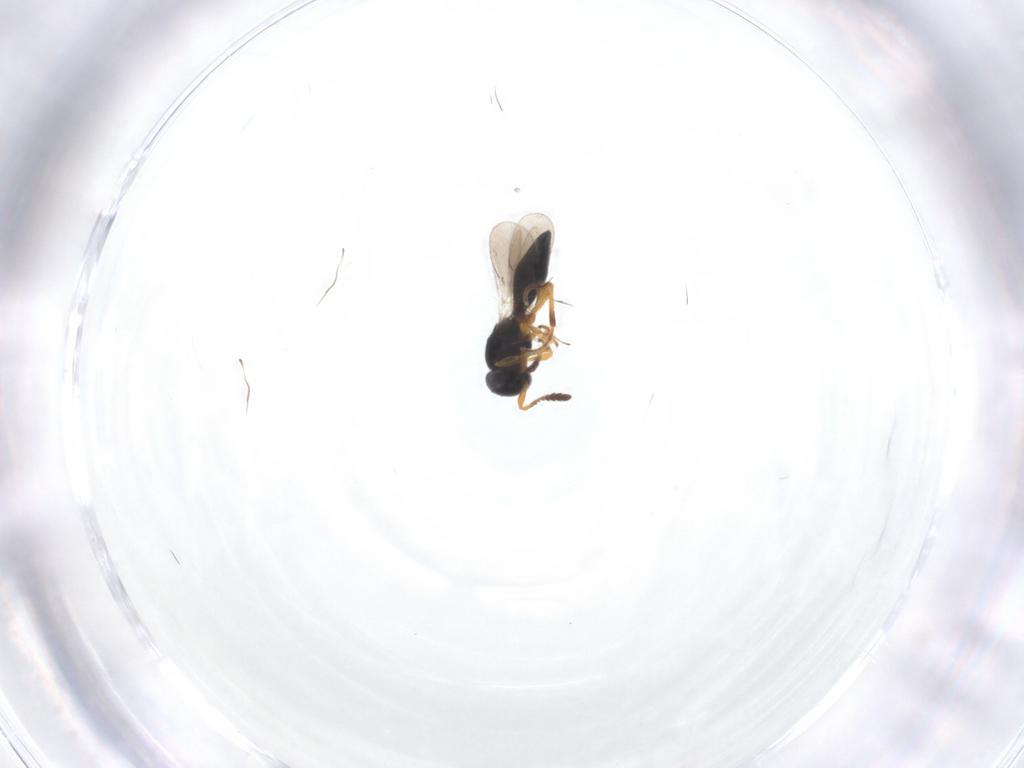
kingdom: Animalia
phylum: Arthropoda
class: Insecta
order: Hymenoptera
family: Platygastridae
